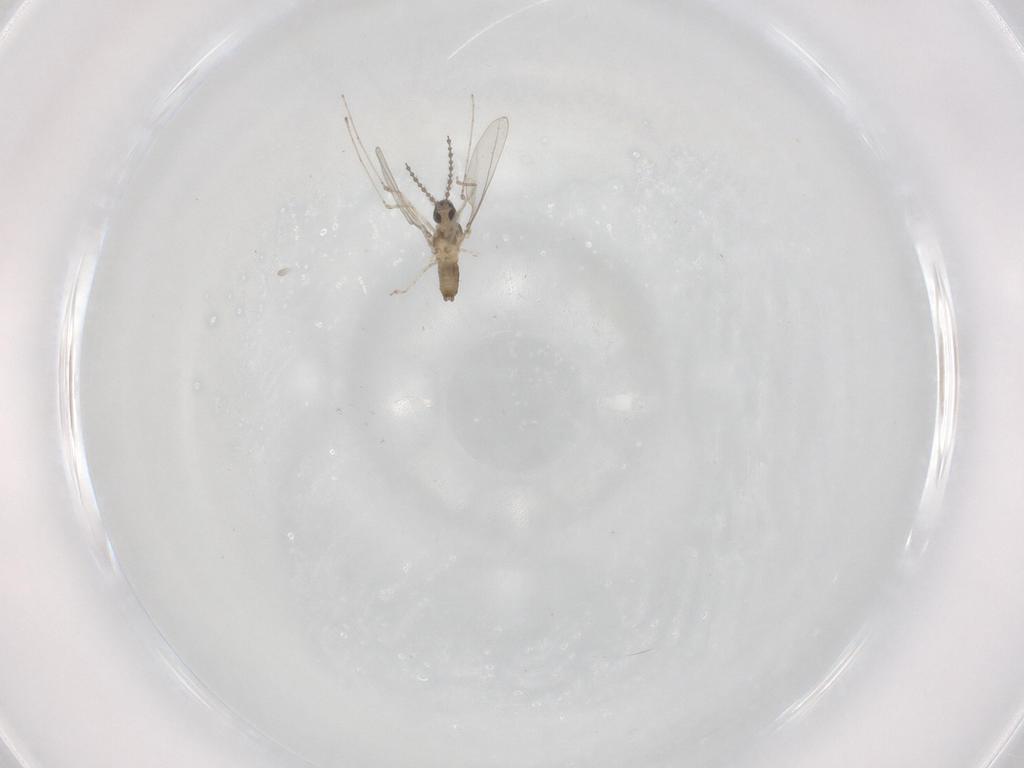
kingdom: Animalia
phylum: Arthropoda
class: Insecta
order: Diptera
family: Cecidomyiidae
